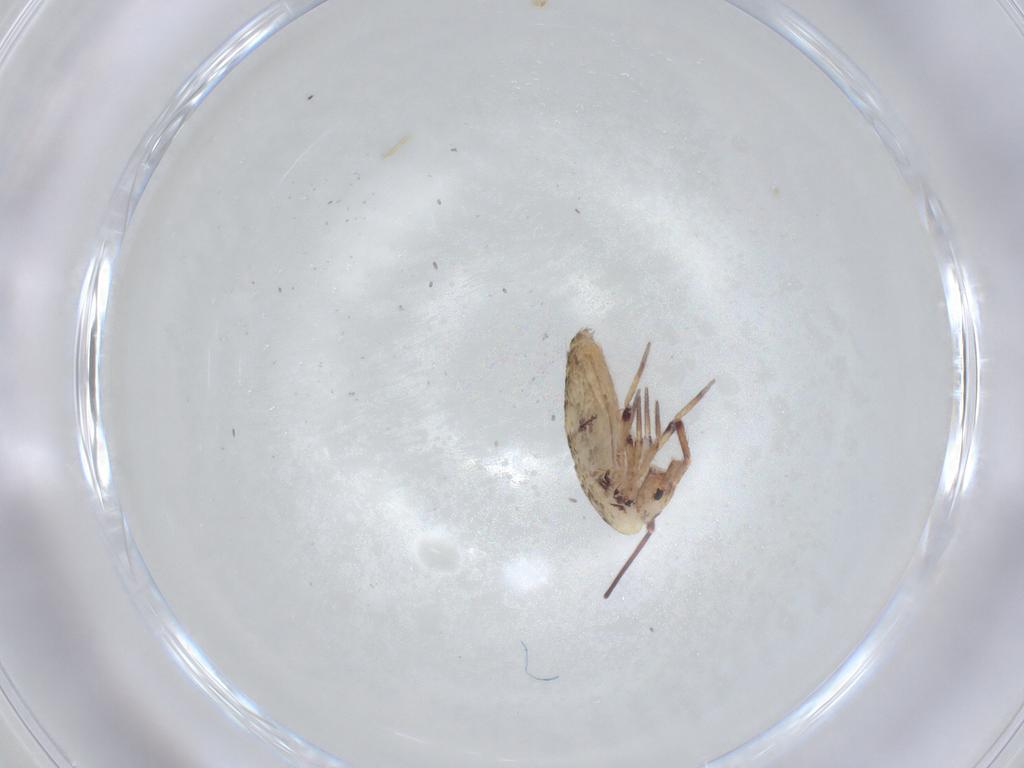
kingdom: Animalia
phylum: Arthropoda
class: Collembola
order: Entomobryomorpha
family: Entomobryidae
